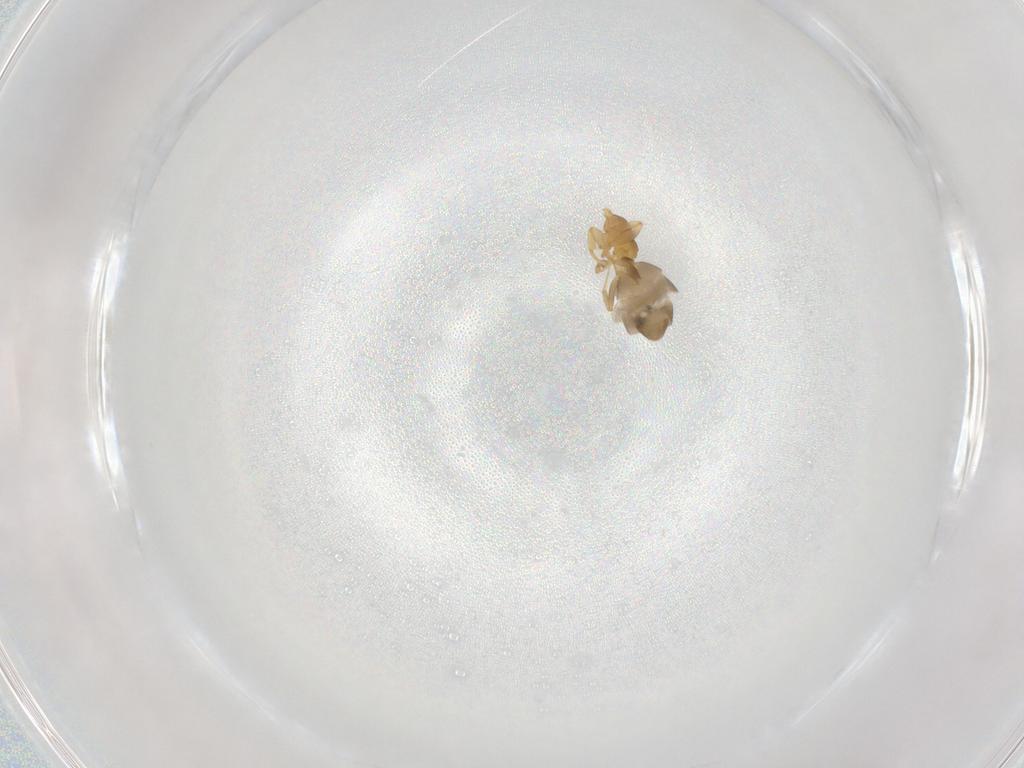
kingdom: Animalia
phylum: Arthropoda
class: Insecta
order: Hymenoptera
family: Formicidae
